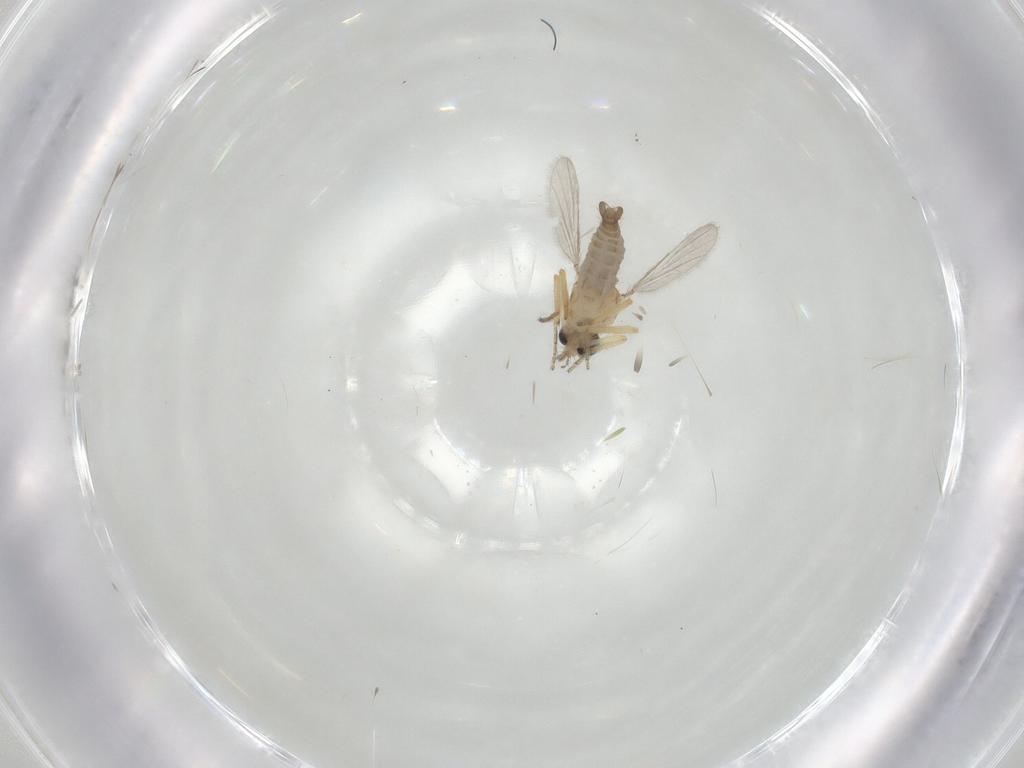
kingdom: Animalia
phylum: Arthropoda
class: Insecta
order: Diptera
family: Ceratopogonidae
